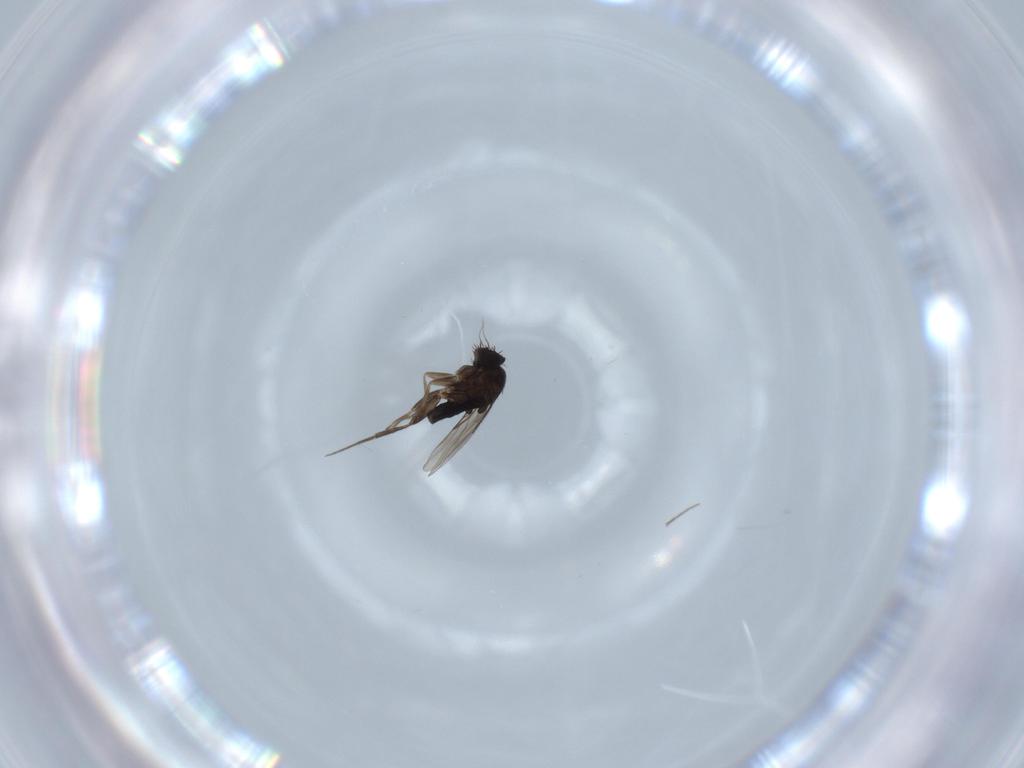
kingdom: Animalia
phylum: Arthropoda
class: Insecta
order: Diptera
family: Phoridae
